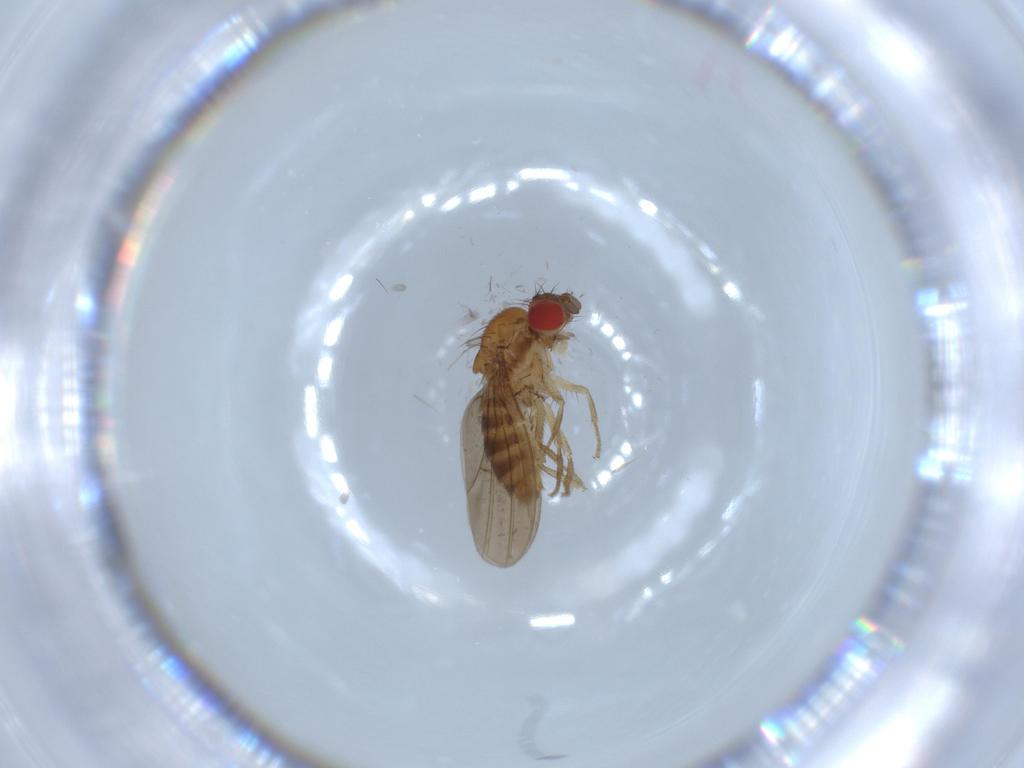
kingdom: Animalia
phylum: Arthropoda
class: Insecta
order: Diptera
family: Drosophilidae
